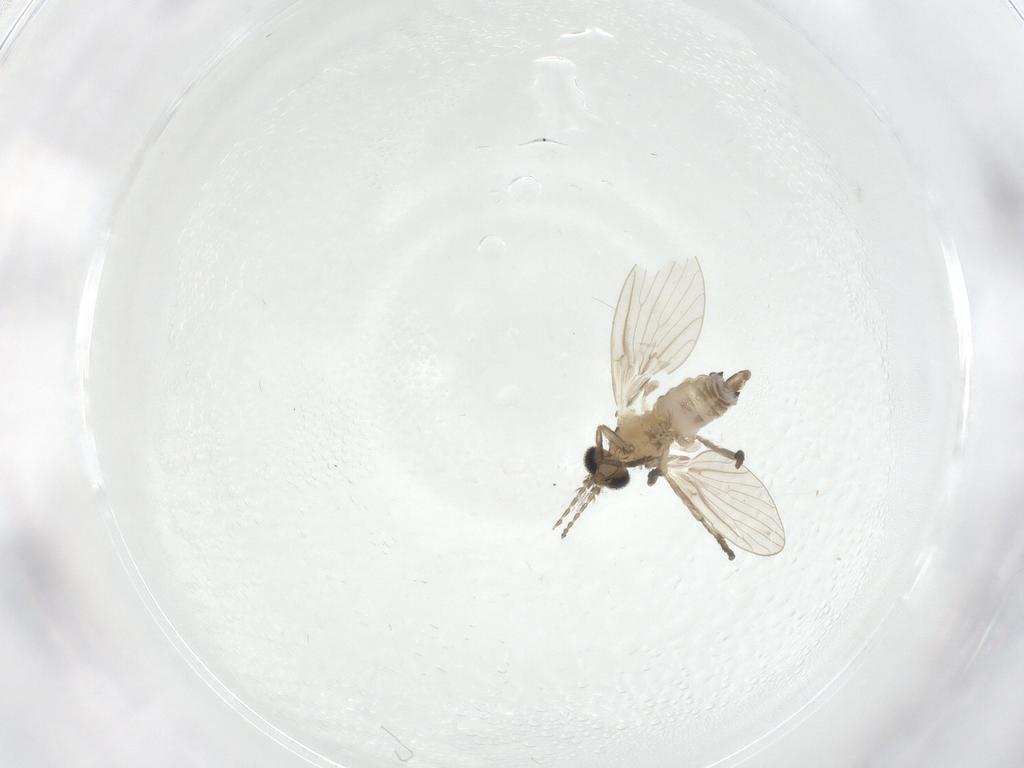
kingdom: Animalia
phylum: Arthropoda
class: Insecta
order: Diptera
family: Psychodidae
